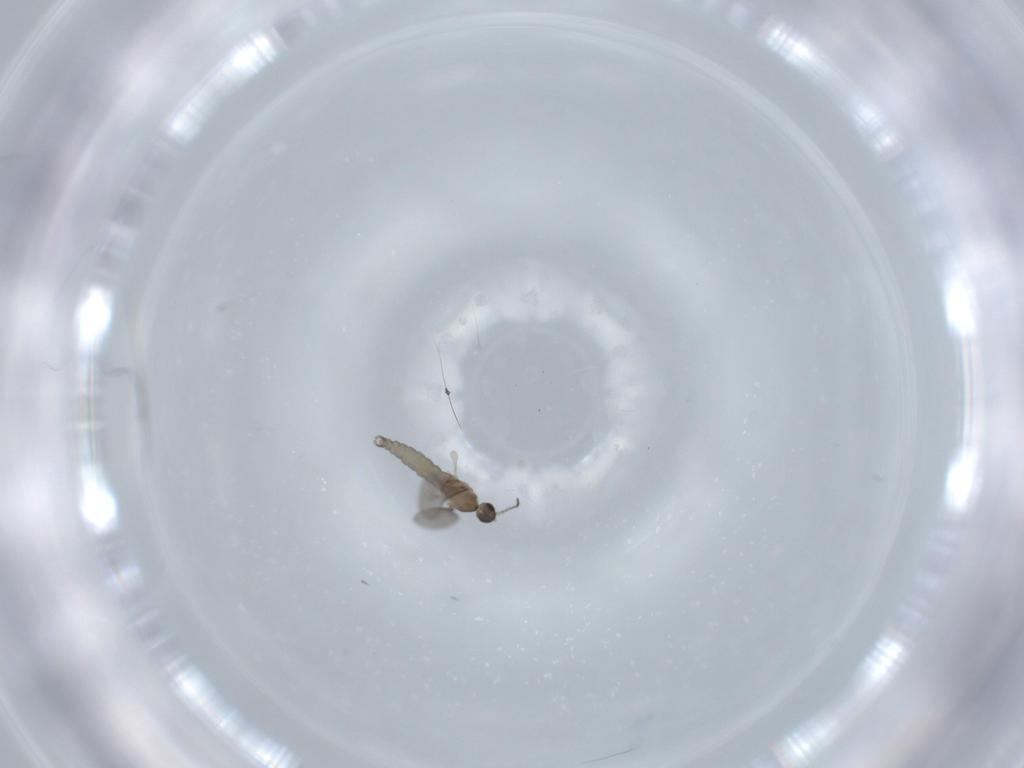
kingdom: Animalia
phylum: Arthropoda
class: Insecta
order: Diptera
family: Cecidomyiidae
